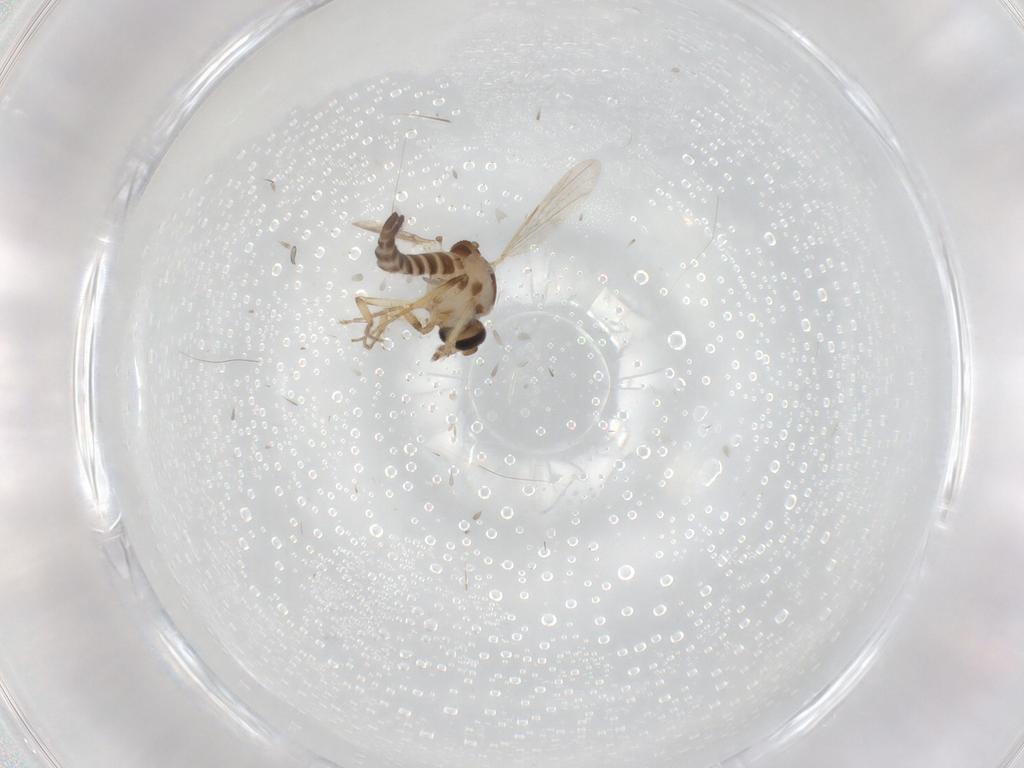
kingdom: Animalia
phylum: Arthropoda
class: Insecta
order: Diptera
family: Ceratopogonidae
